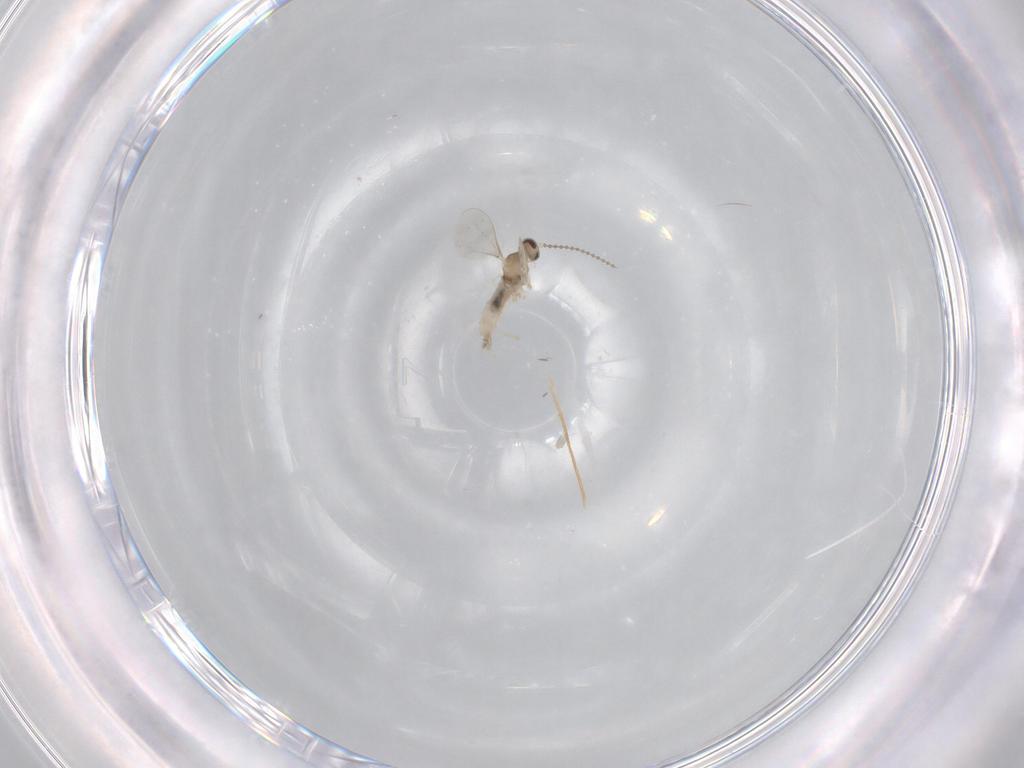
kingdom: Animalia
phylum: Arthropoda
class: Insecta
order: Diptera
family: Cecidomyiidae
